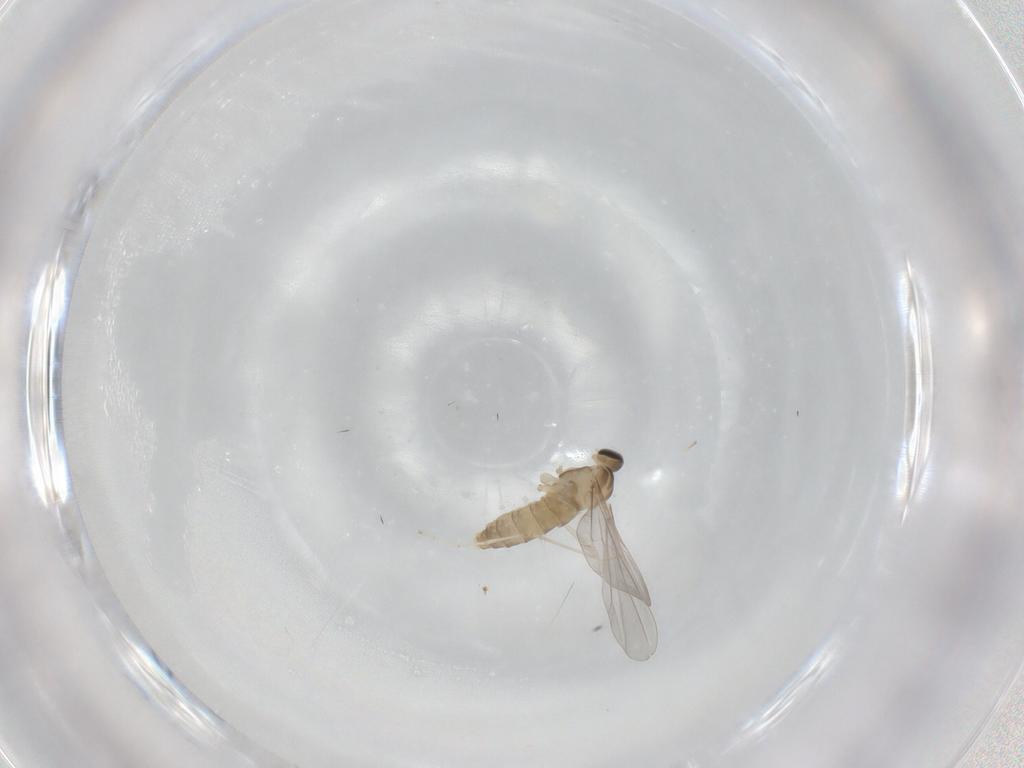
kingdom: Animalia
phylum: Arthropoda
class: Insecta
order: Diptera
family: Cecidomyiidae
